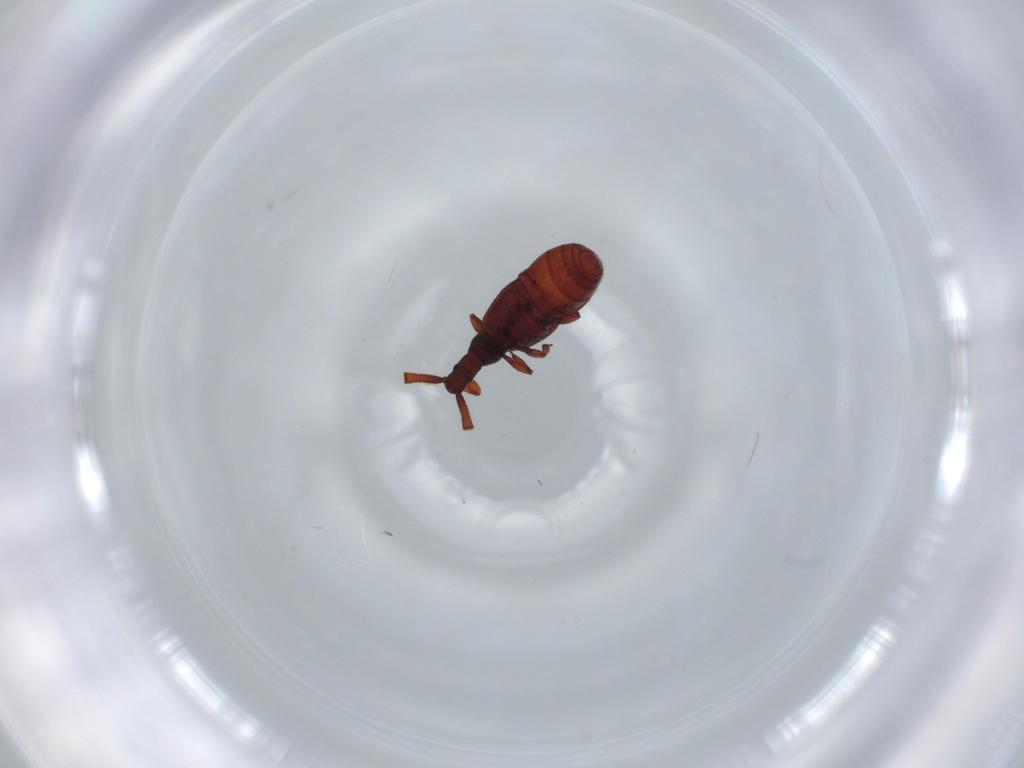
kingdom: Animalia
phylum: Arthropoda
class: Insecta
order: Coleoptera
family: Staphylinidae
